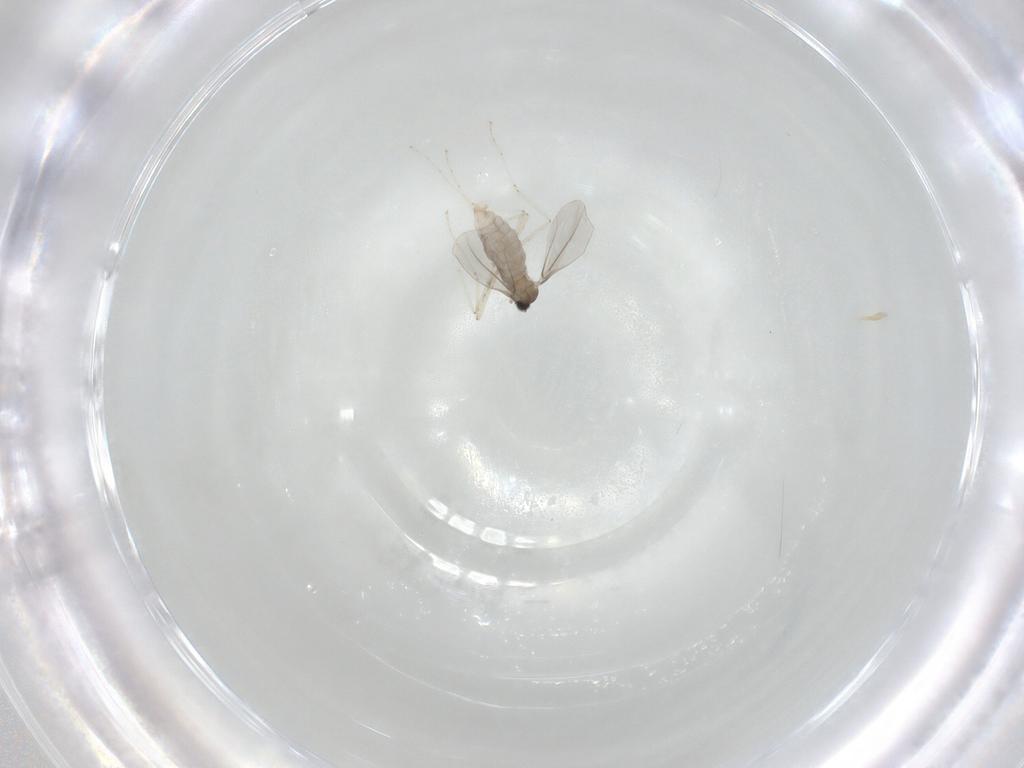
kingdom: Animalia
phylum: Arthropoda
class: Insecta
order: Diptera
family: Cecidomyiidae
